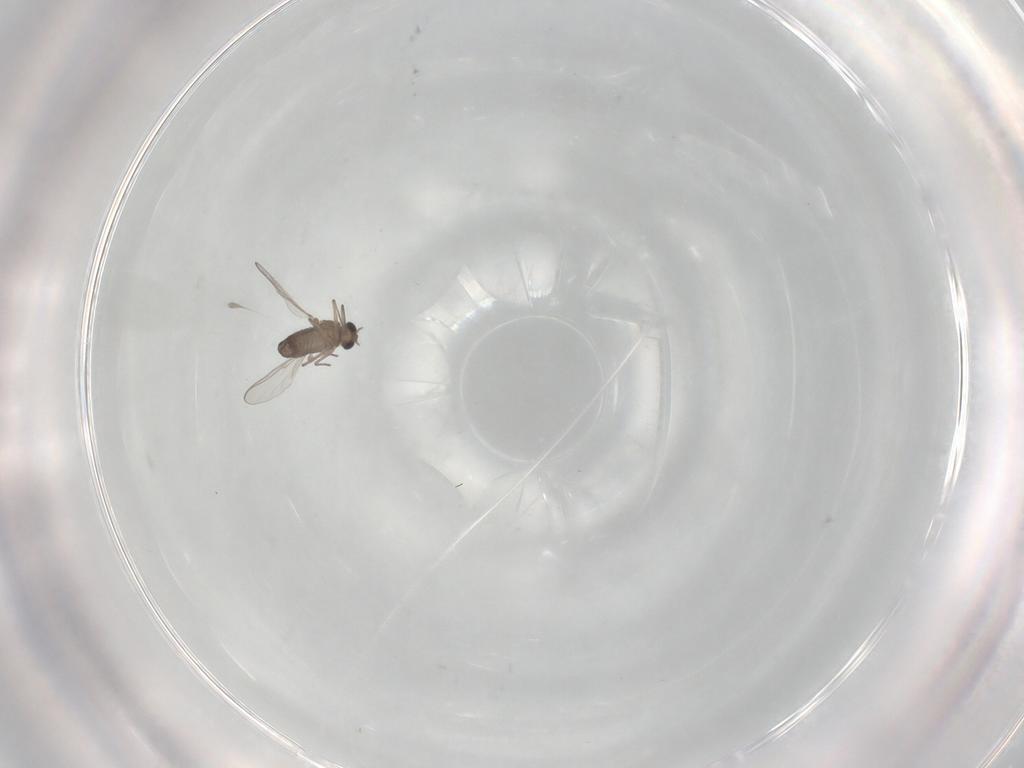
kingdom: Animalia
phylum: Arthropoda
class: Insecta
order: Diptera
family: Chironomidae
